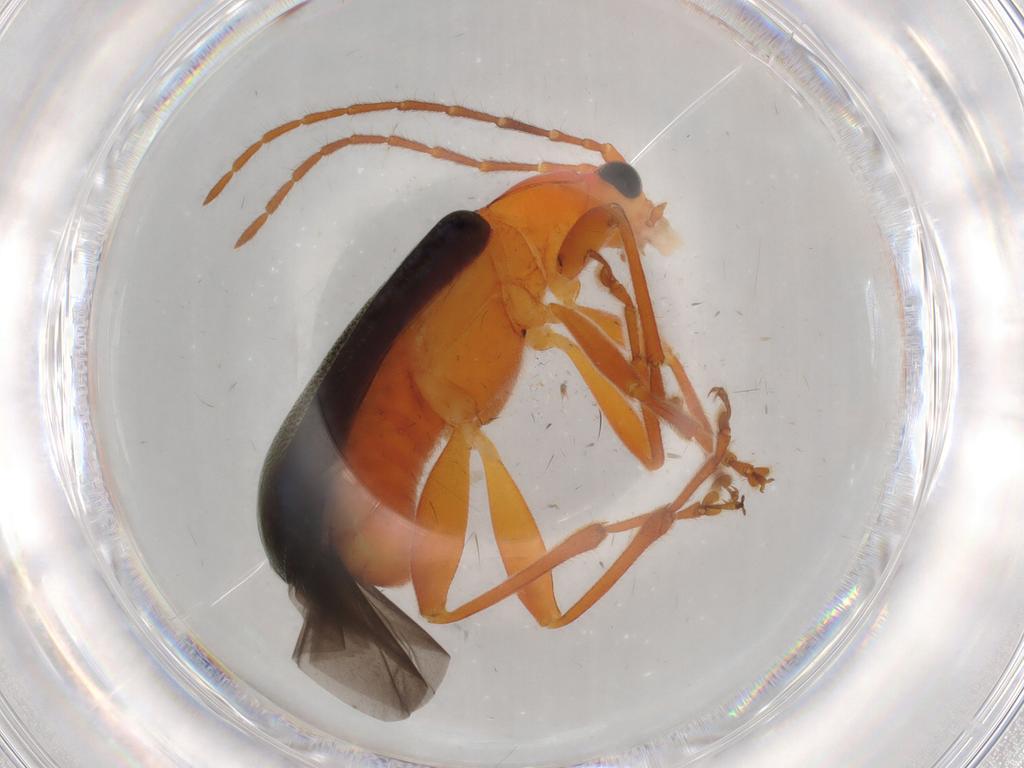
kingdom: Animalia
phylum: Arthropoda
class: Insecta
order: Coleoptera
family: Chrysomelidae
